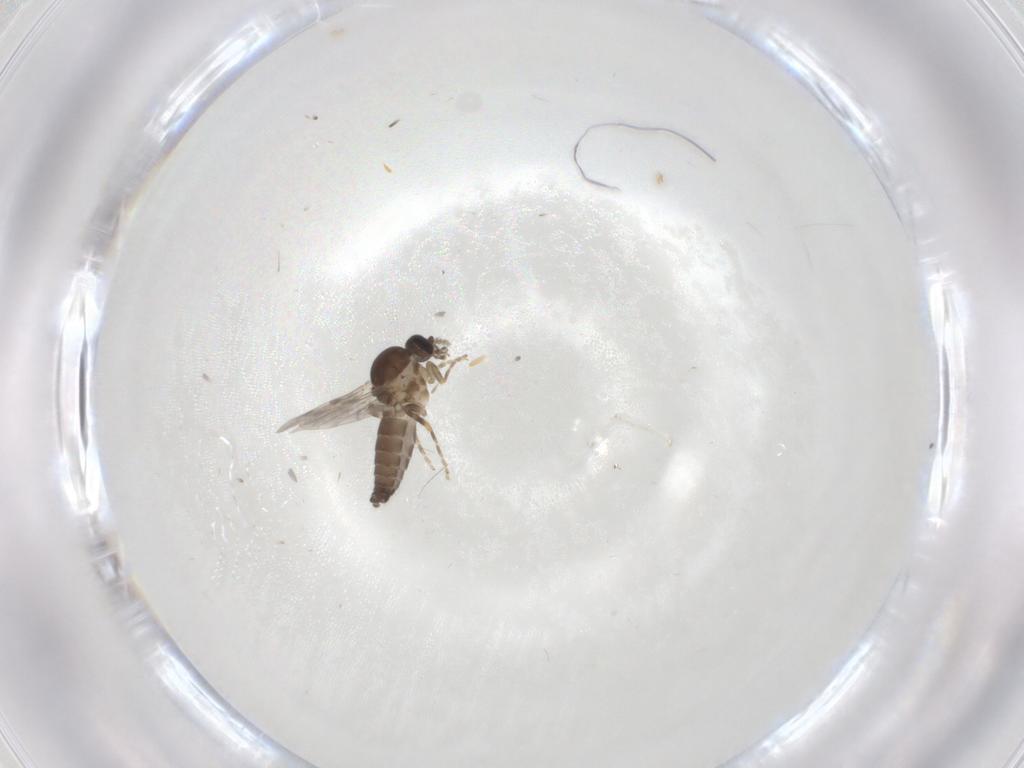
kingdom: Animalia
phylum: Arthropoda
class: Insecta
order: Diptera
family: Ceratopogonidae
